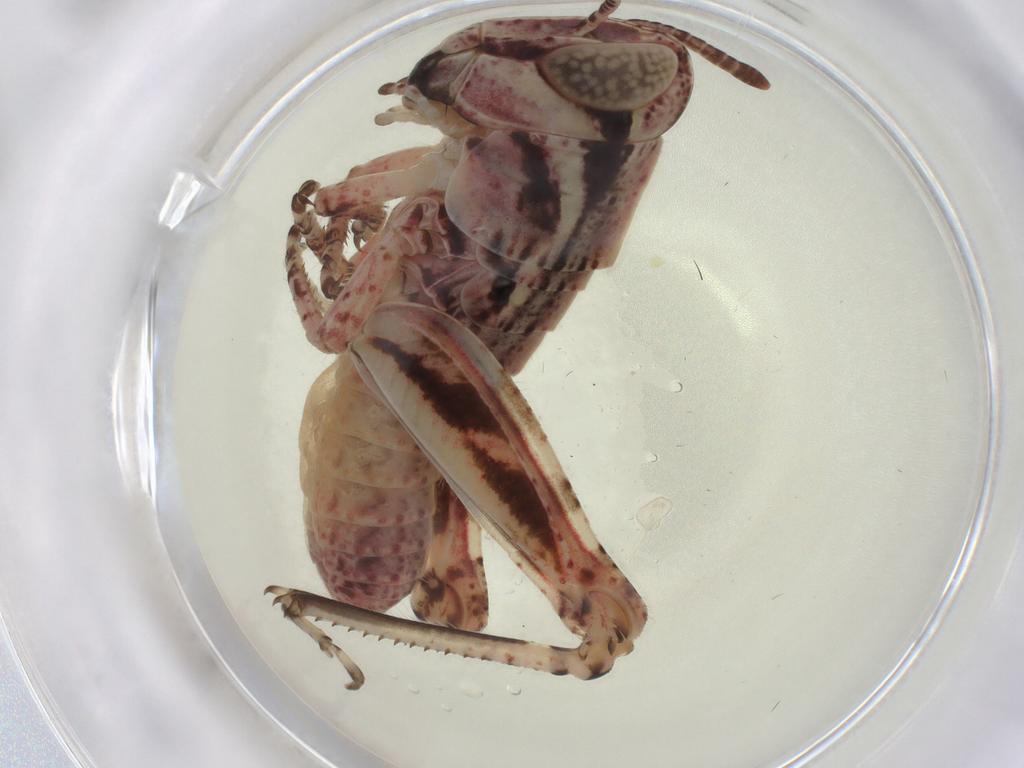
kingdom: Animalia
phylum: Arthropoda
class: Insecta
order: Orthoptera
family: Acrididae
